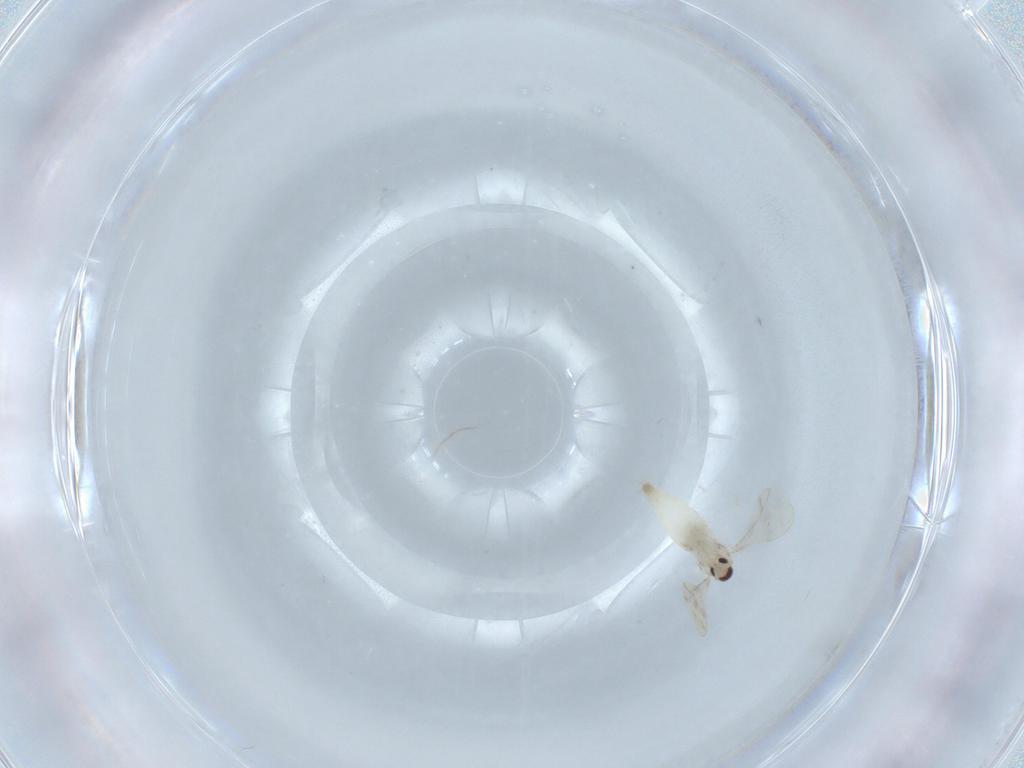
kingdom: Animalia
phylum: Arthropoda
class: Insecta
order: Diptera
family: Cecidomyiidae
